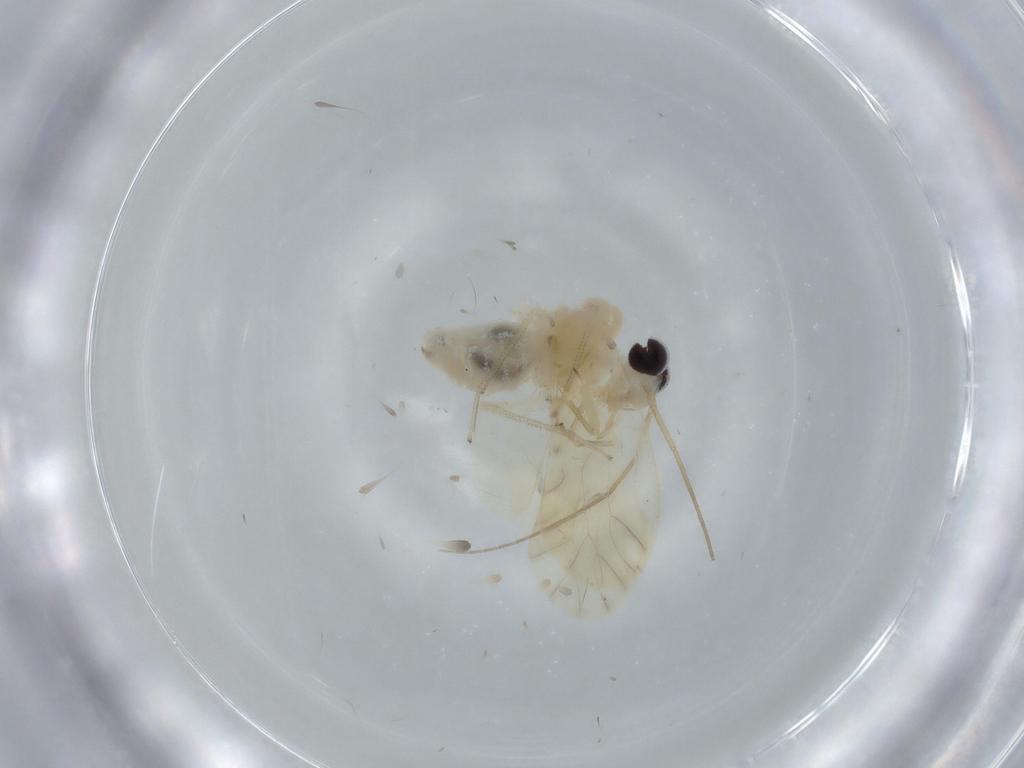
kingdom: Animalia
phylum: Arthropoda
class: Insecta
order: Psocodea
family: Caeciliusidae
